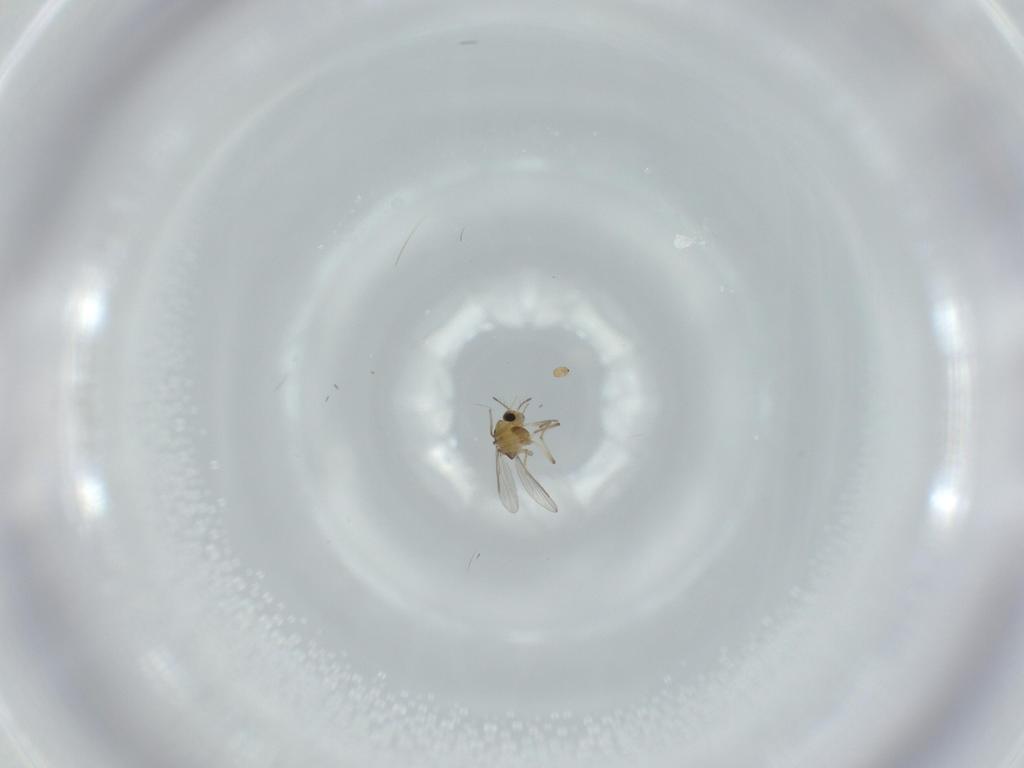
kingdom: Animalia
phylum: Arthropoda
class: Insecta
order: Diptera
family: Chironomidae
